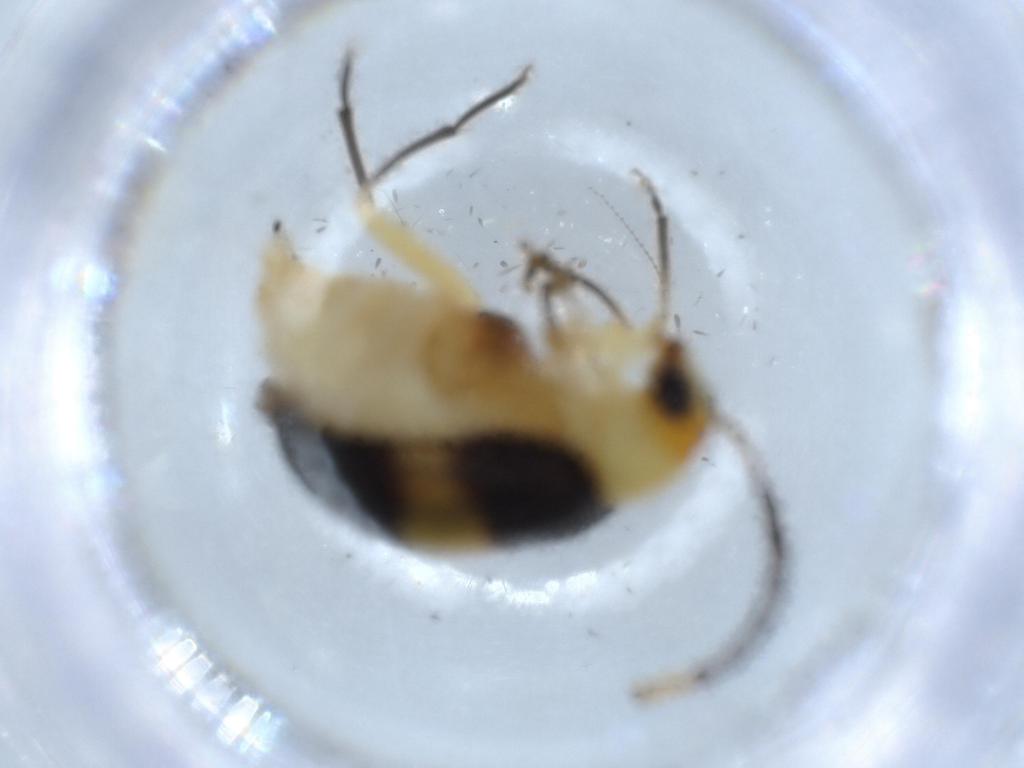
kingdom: Animalia
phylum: Arthropoda
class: Insecta
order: Coleoptera
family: Chrysomelidae
